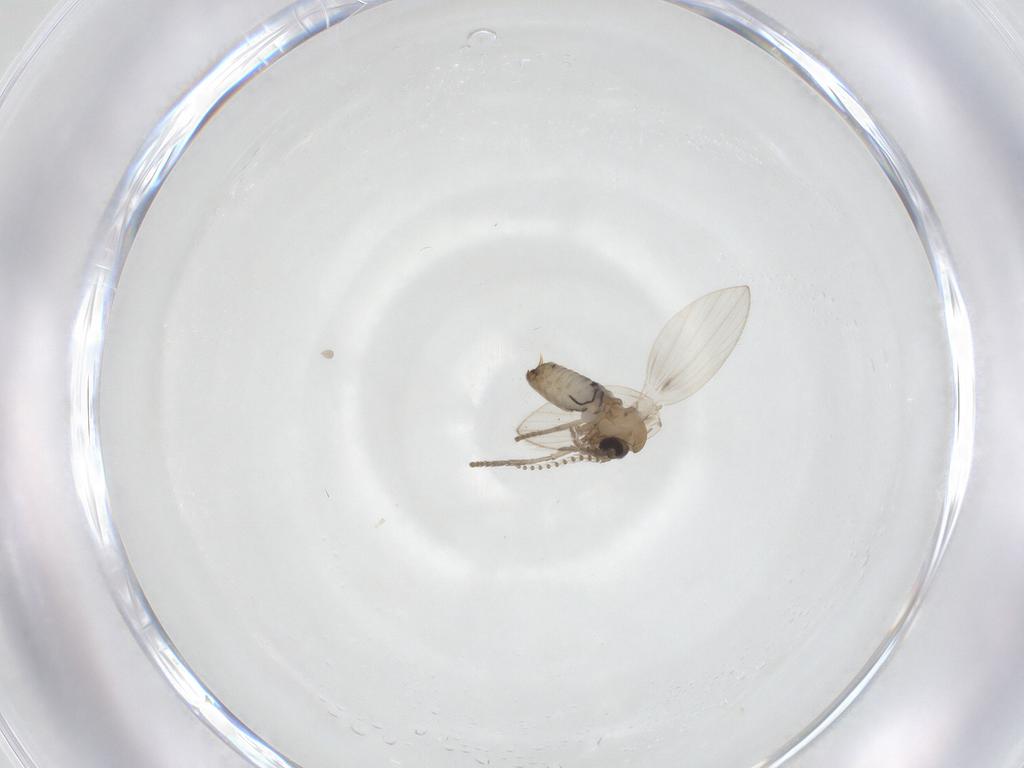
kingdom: Animalia
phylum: Arthropoda
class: Insecta
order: Diptera
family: Psychodidae
